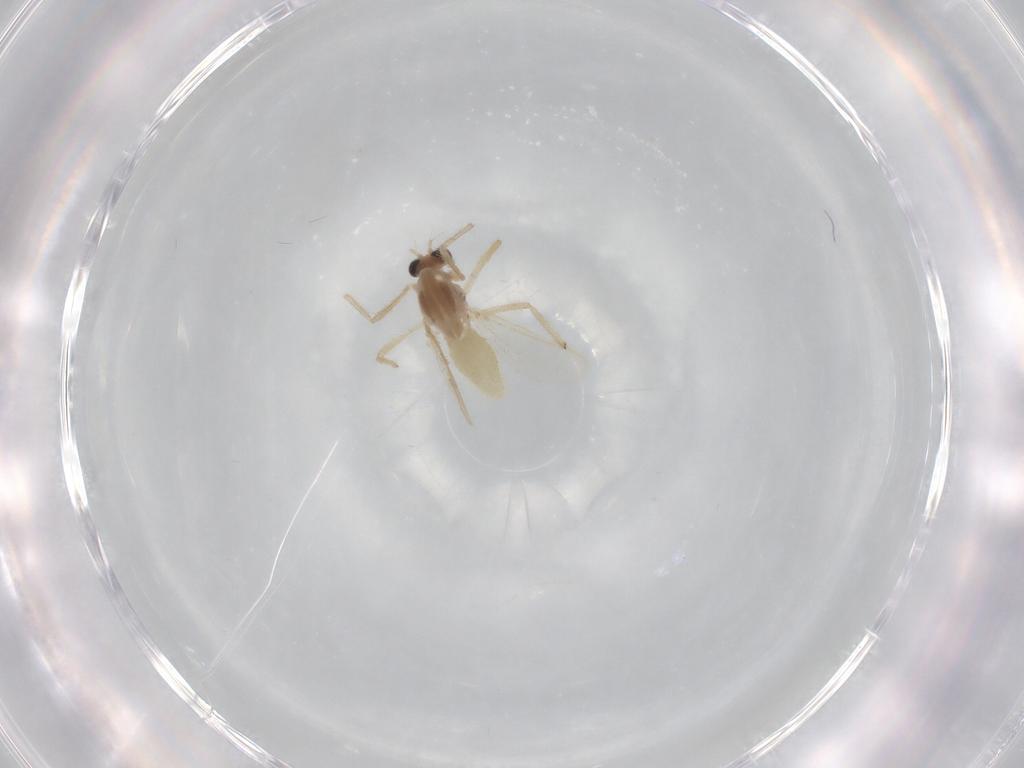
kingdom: Animalia
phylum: Arthropoda
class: Insecta
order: Diptera
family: Chironomidae
